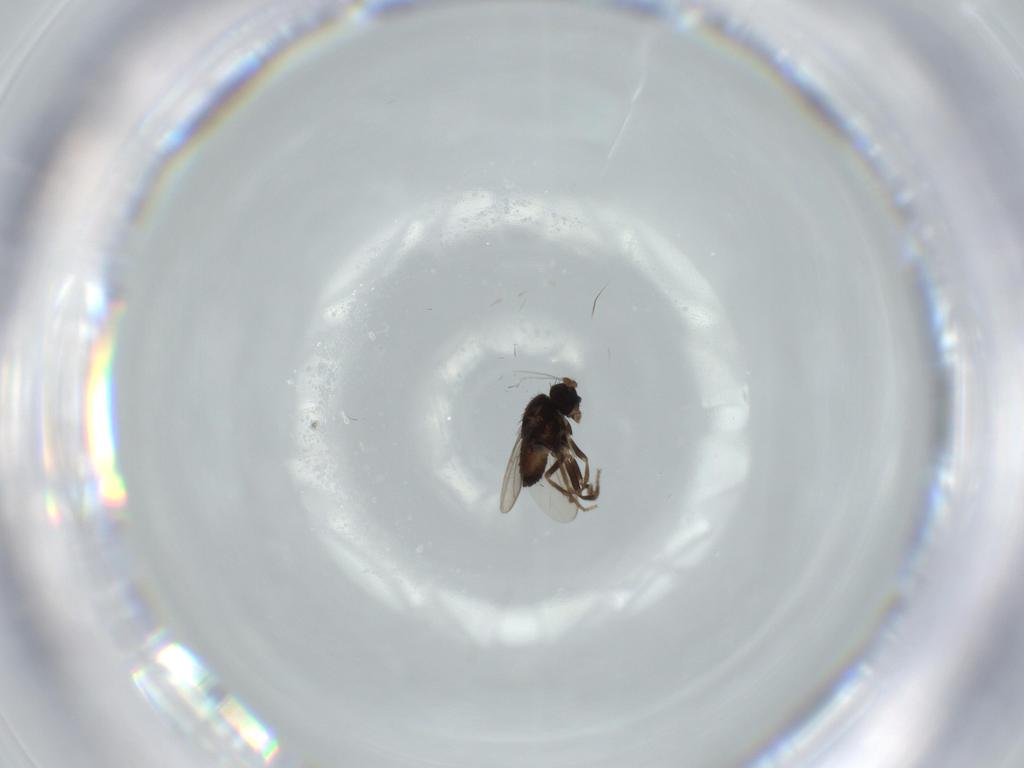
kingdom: Animalia
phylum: Arthropoda
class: Insecta
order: Diptera
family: Sphaeroceridae
